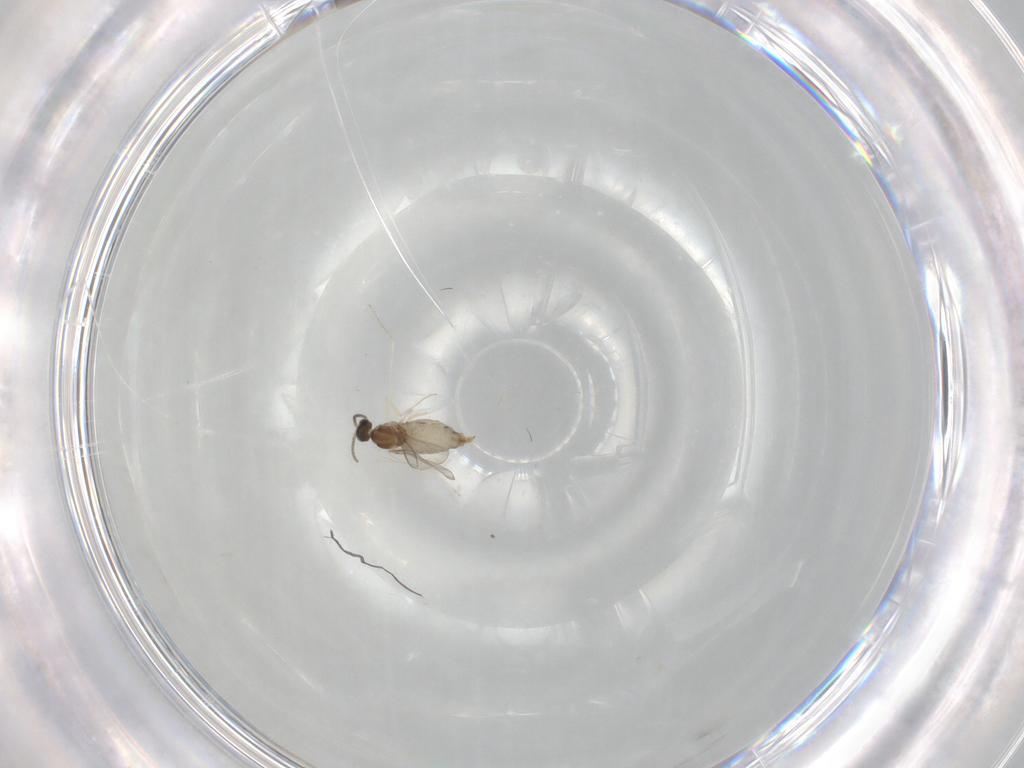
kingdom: Animalia
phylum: Arthropoda
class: Insecta
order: Diptera
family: Cecidomyiidae
